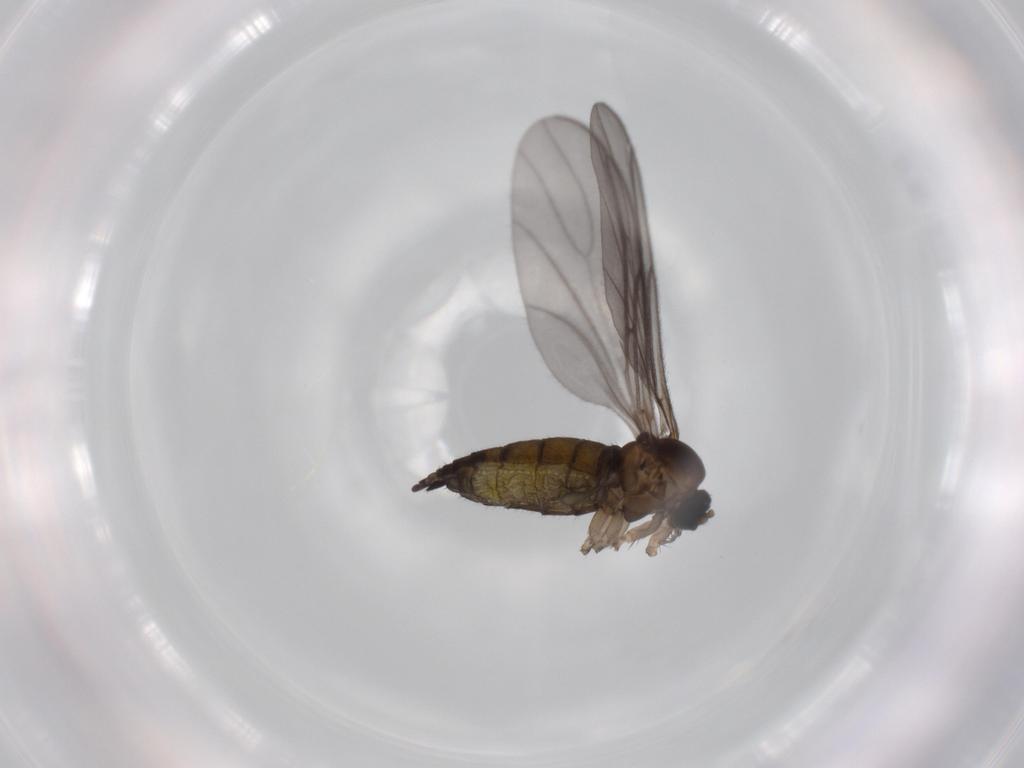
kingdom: Animalia
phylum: Arthropoda
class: Insecta
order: Diptera
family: Sciaridae
